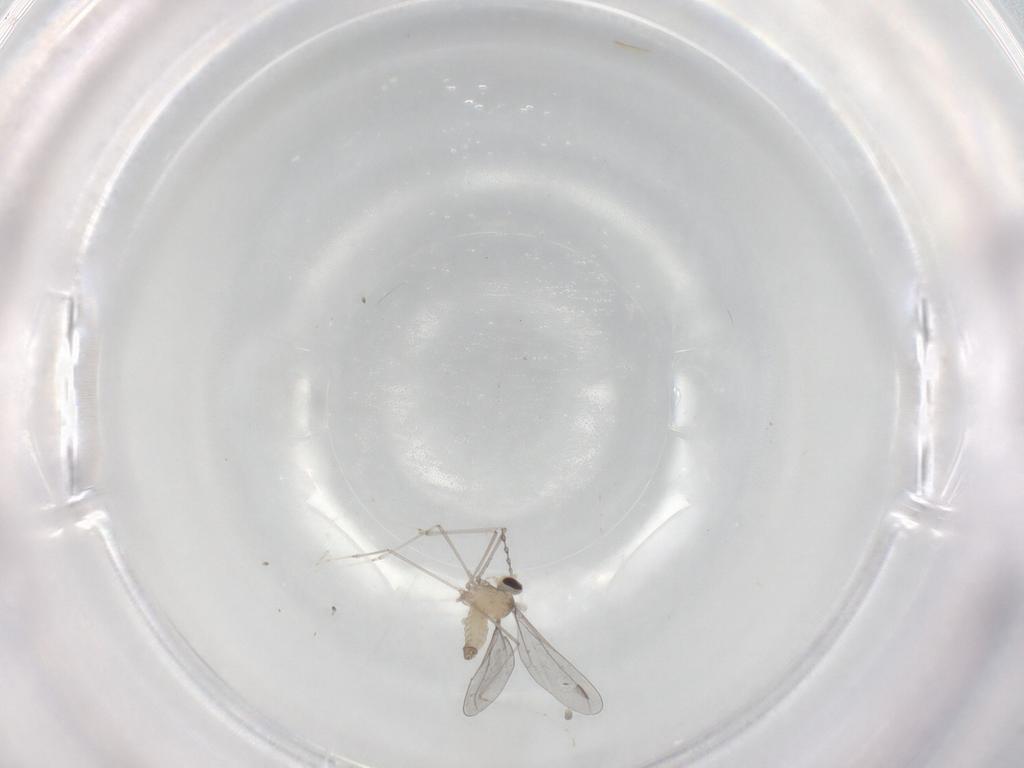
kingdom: Animalia
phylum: Arthropoda
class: Insecta
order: Diptera
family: Cecidomyiidae
